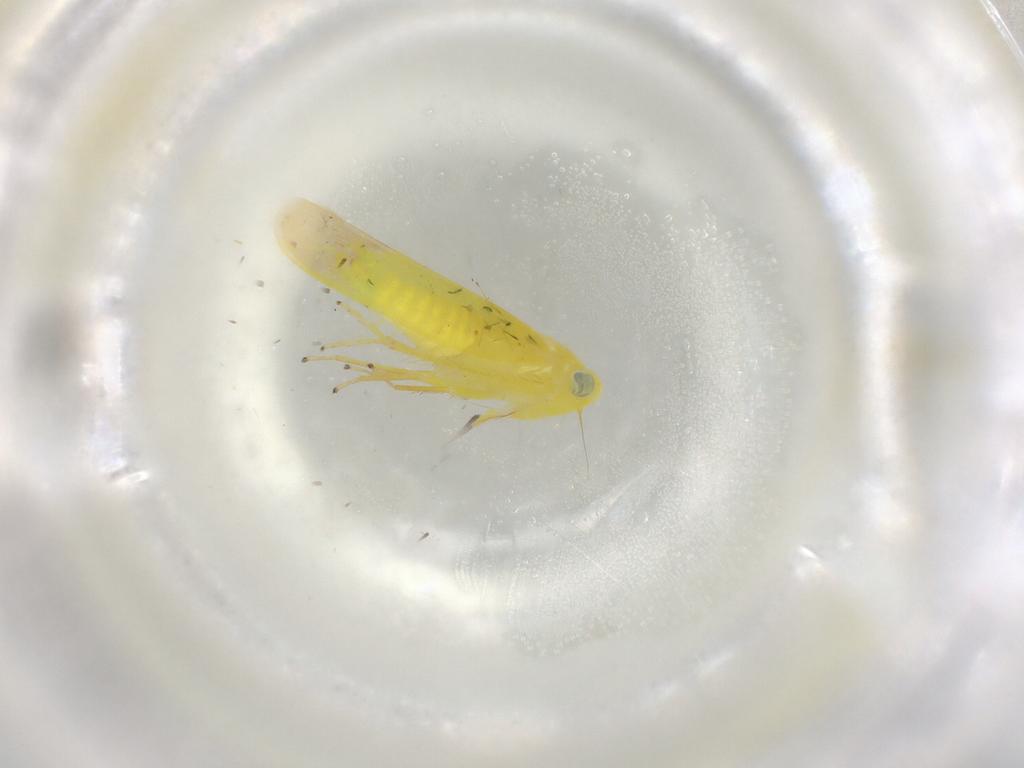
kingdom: Animalia
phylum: Arthropoda
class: Insecta
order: Hemiptera
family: Cicadellidae
